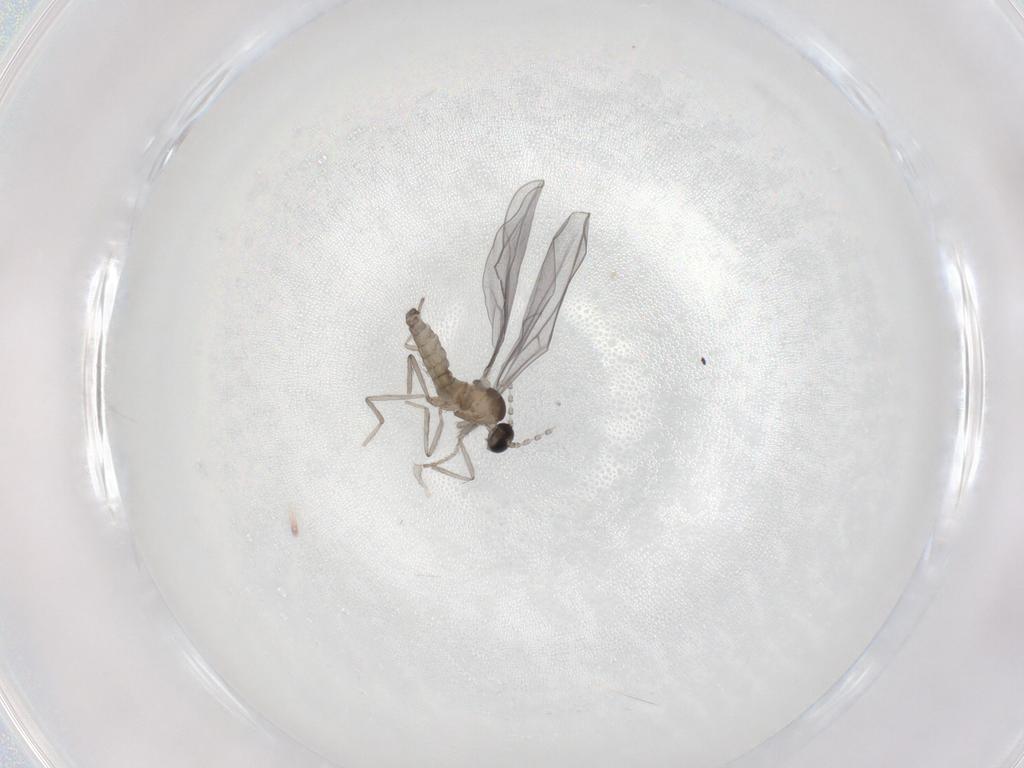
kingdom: Animalia
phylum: Arthropoda
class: Insecta
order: Diptera
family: Cecidomyiidae
